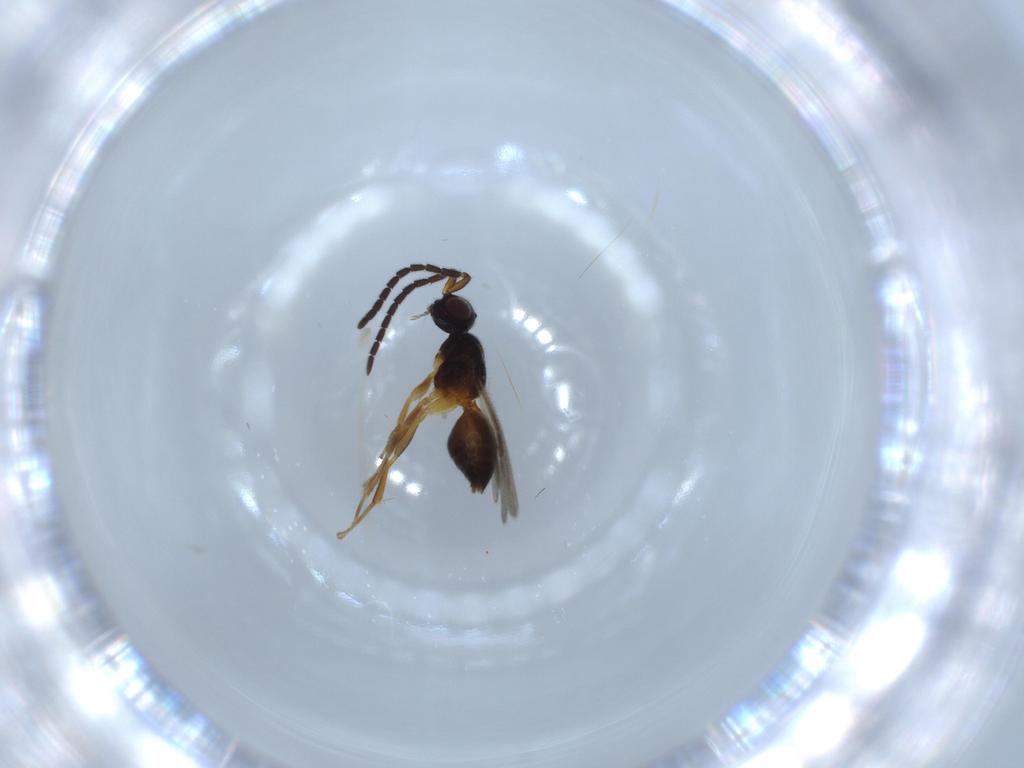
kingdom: Animalia
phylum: Arthropoda
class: Insecta
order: Hymenoptera
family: Megaspilidae
